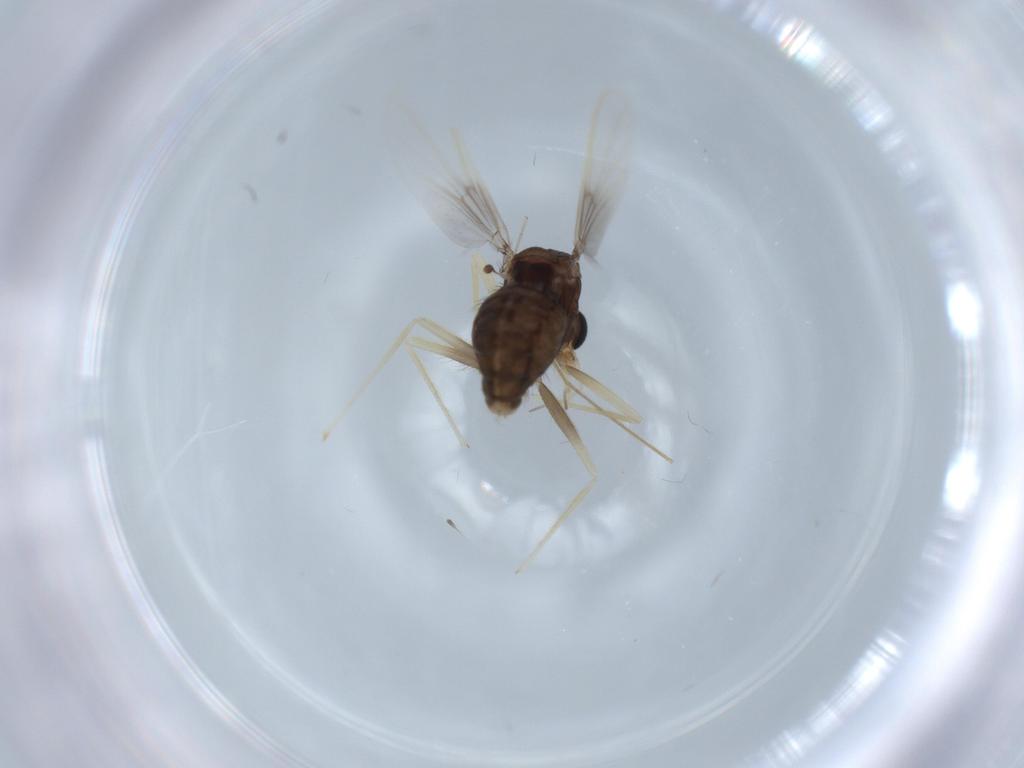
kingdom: Animalia
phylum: Arthropoda
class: Insecta
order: Diptera
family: Chironomidae
